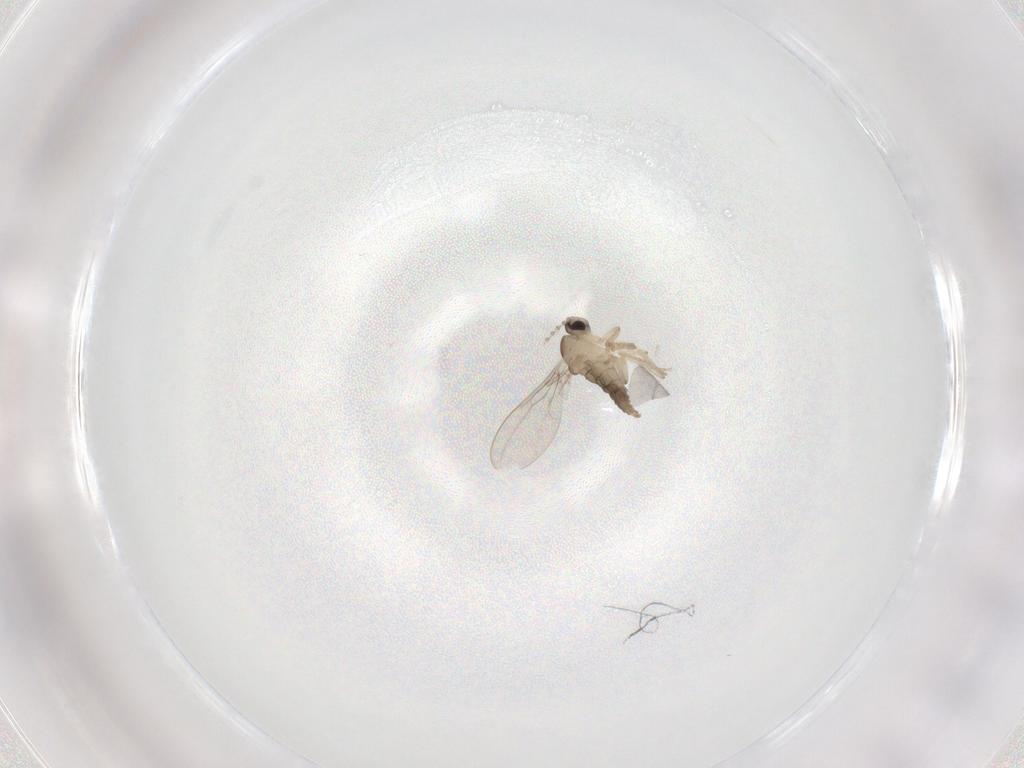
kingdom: Animalia
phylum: Arthropoda
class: Insecta
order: Diptera
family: Cecidomyiidae
